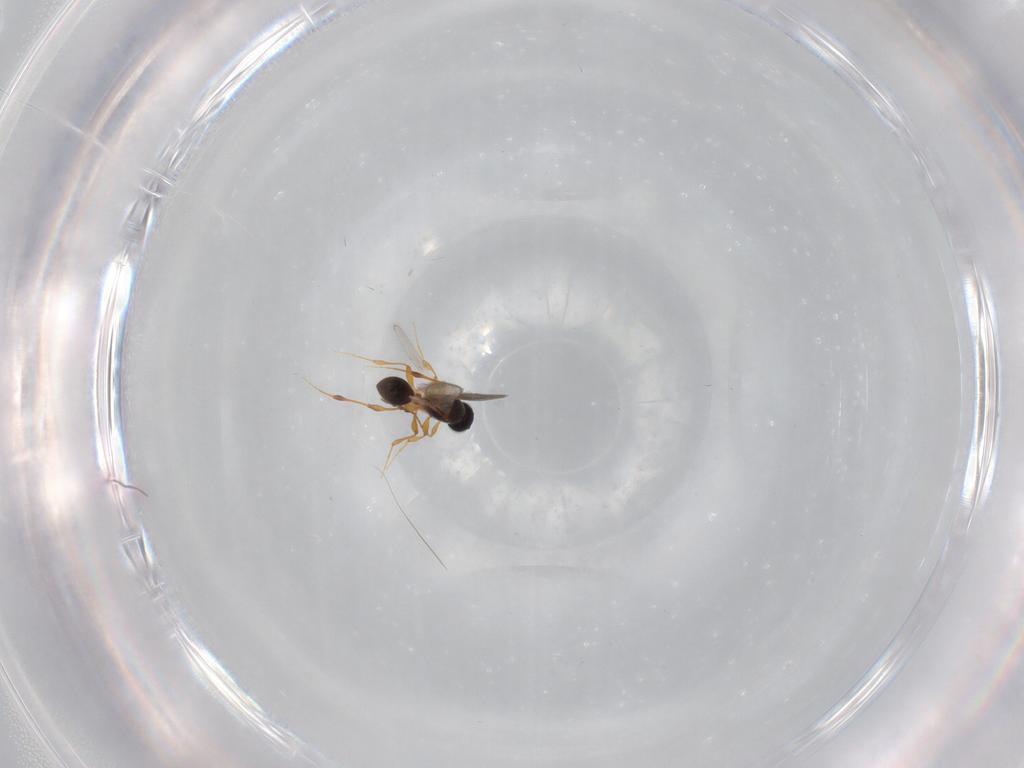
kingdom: Animalia
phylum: Arthropoda
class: Insecta
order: Hymenoptera
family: Platygastridae
